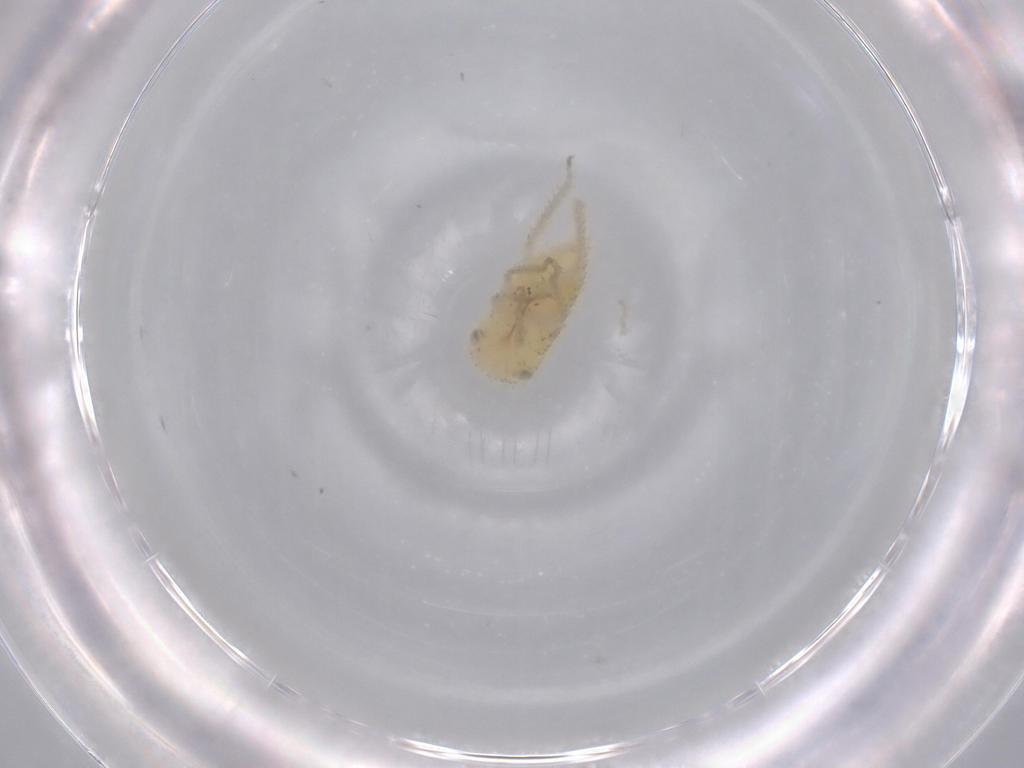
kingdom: Animalia
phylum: Arthropoda
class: Insecta
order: Hemiptera
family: Cicadellidae
